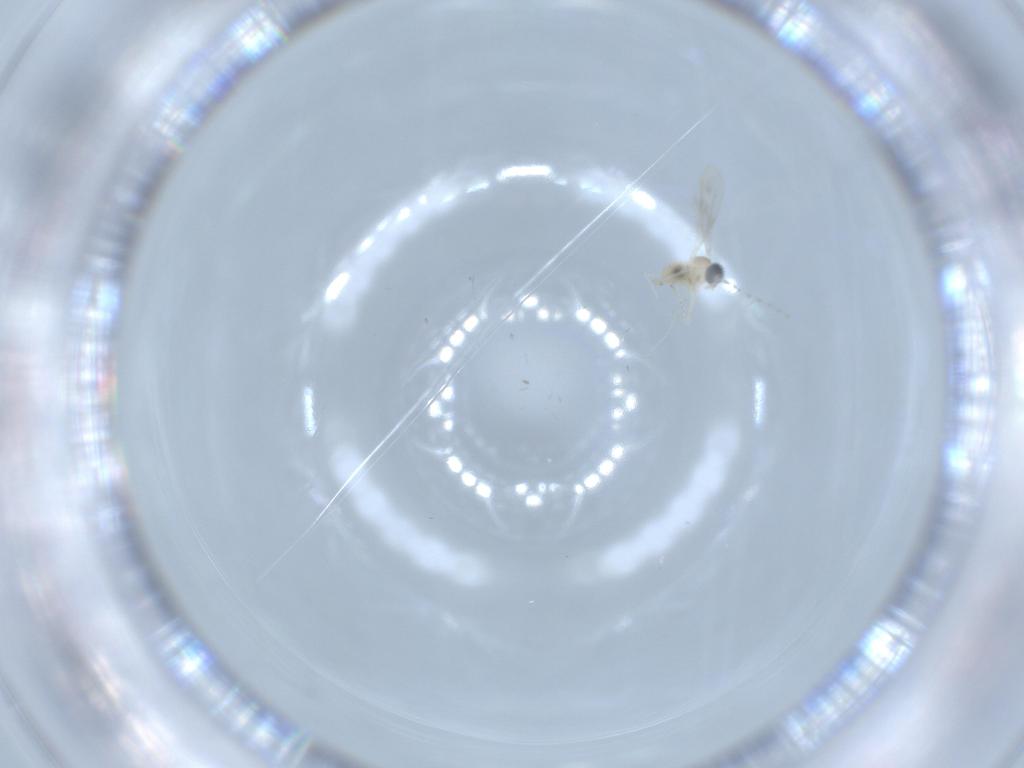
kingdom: Animalia
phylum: Arthropoda
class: Insecta
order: Diptera
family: Cecidomyiidae
